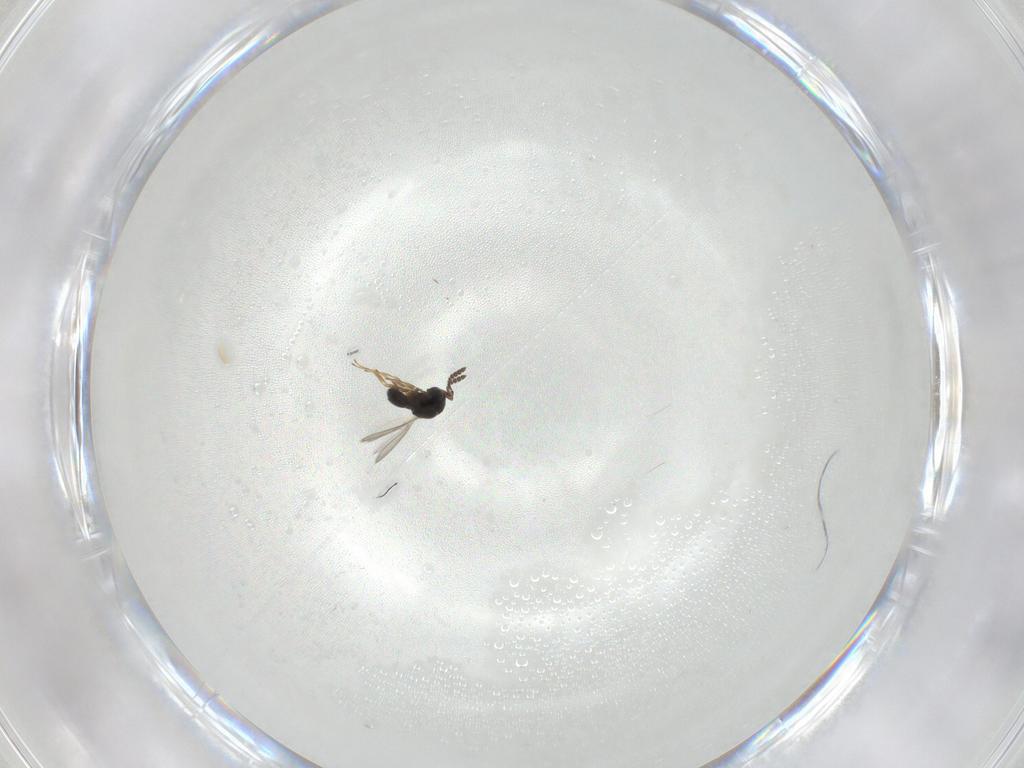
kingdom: Animalia
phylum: Arthropoda
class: Insecta
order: Hymenoptera
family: Scelionidae
